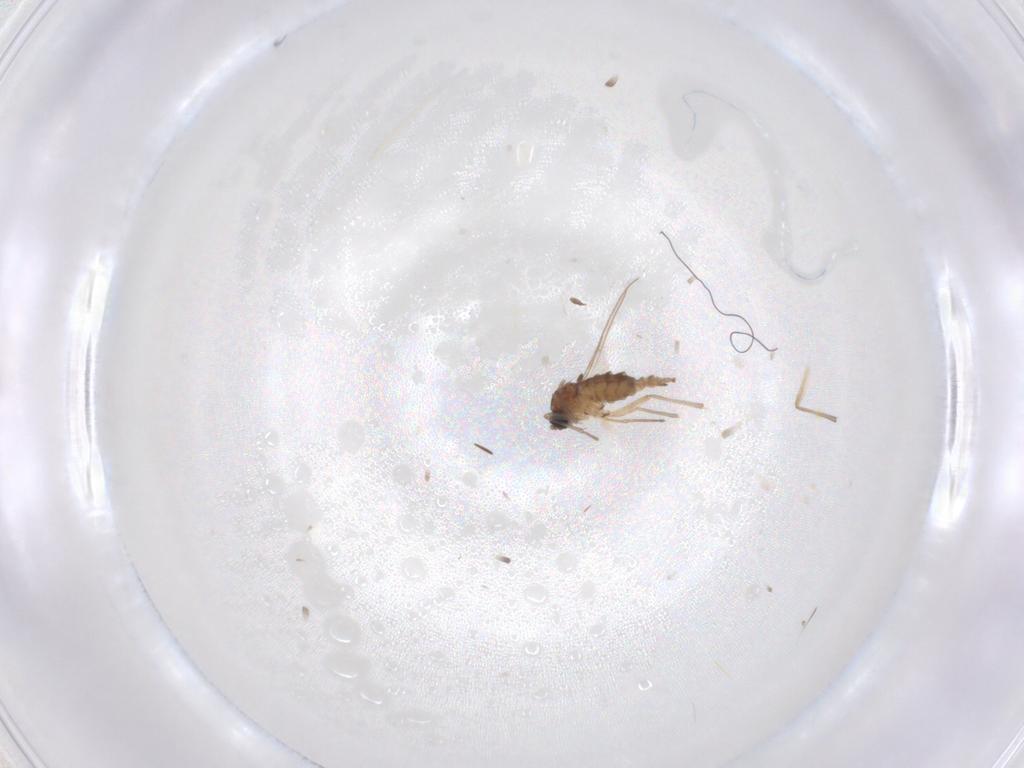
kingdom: Animalia
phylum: Arthropoda
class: Insecta
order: Diptera
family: Sciaridae
